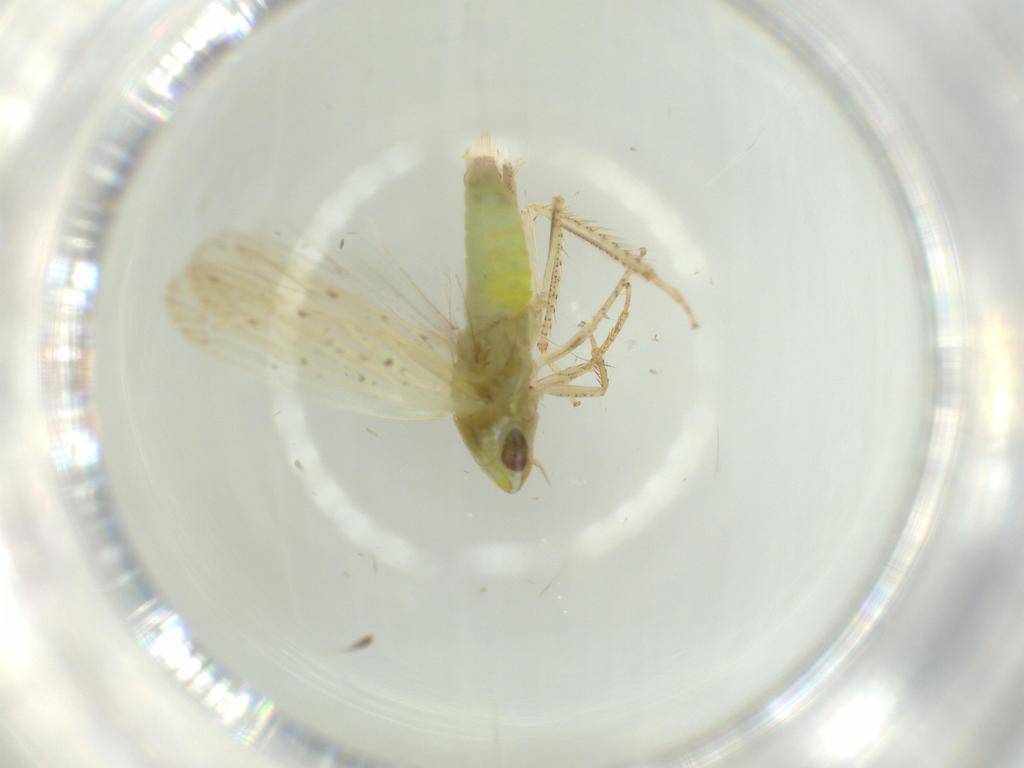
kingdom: Animalia
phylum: Arthropoda
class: Insecta
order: Hemiptera
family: Cicadellidae
